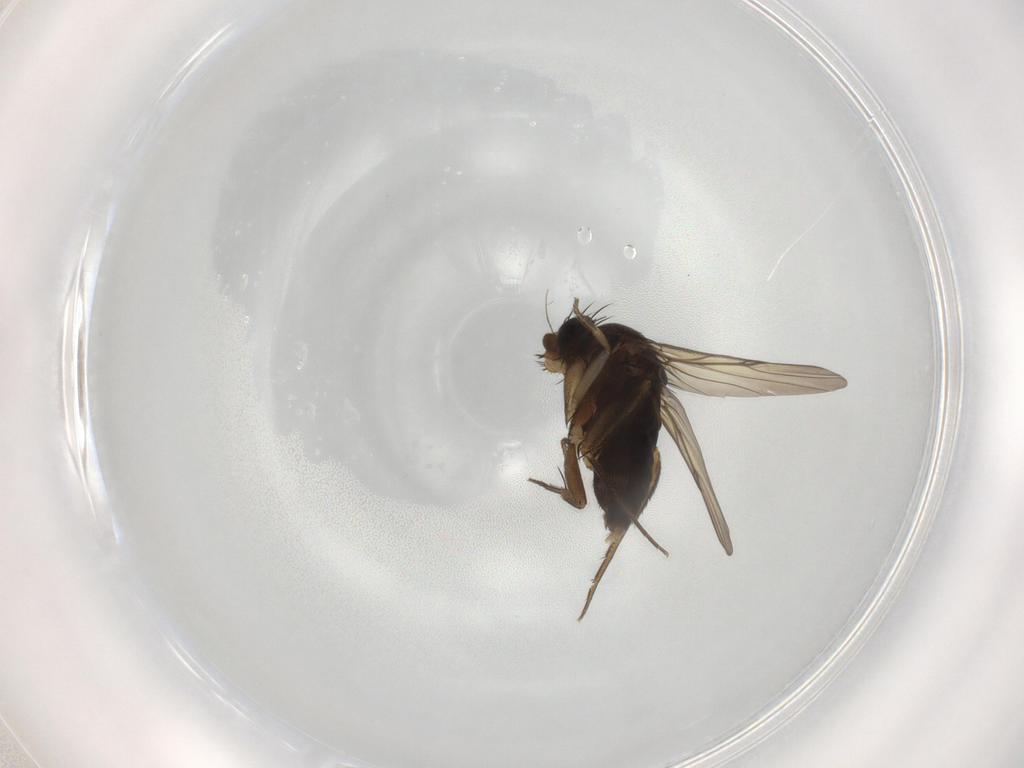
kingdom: Animalia
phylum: Arthropoda
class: Insecta
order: Diptera
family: Phoridae
